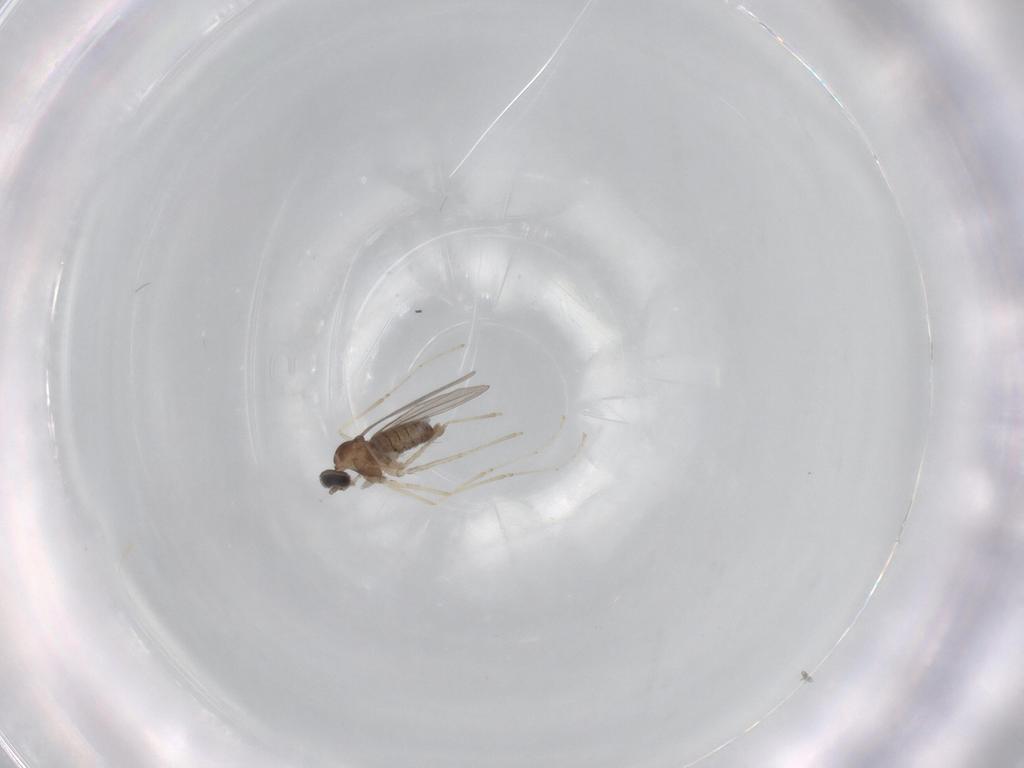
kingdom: Animalia
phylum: Arthropoda
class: Insecta
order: Diptera
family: Cecidomyiidae
